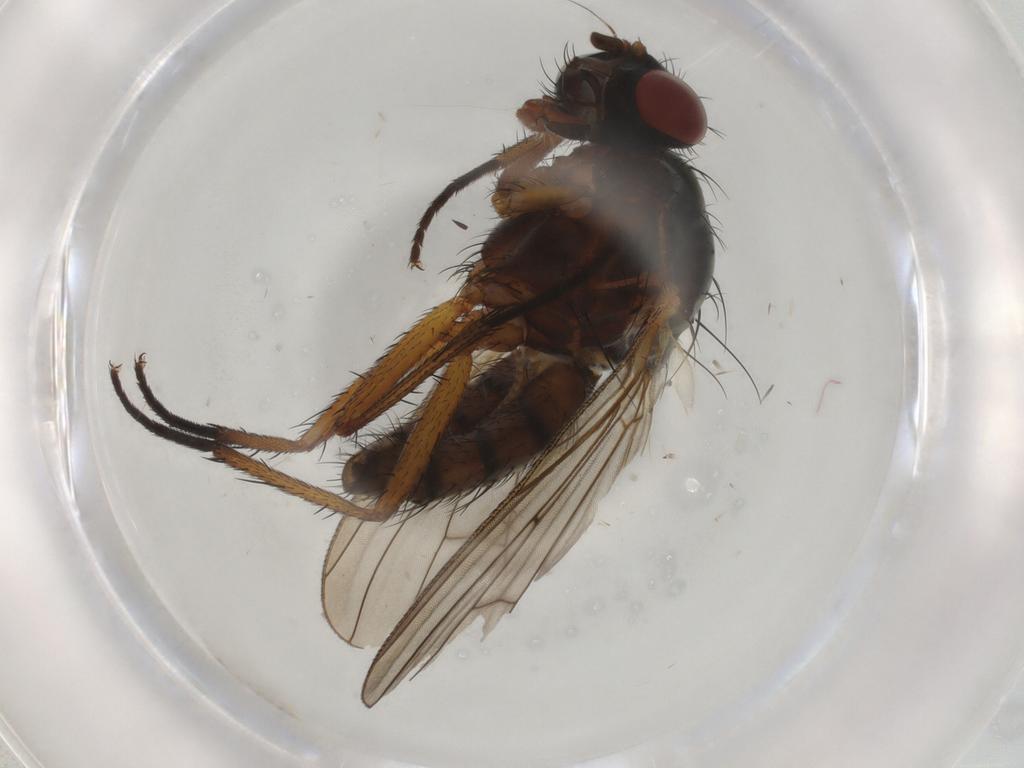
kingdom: Animalia
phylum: Arthropoda
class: Insecta
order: Diptera
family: Anthomyiidae
